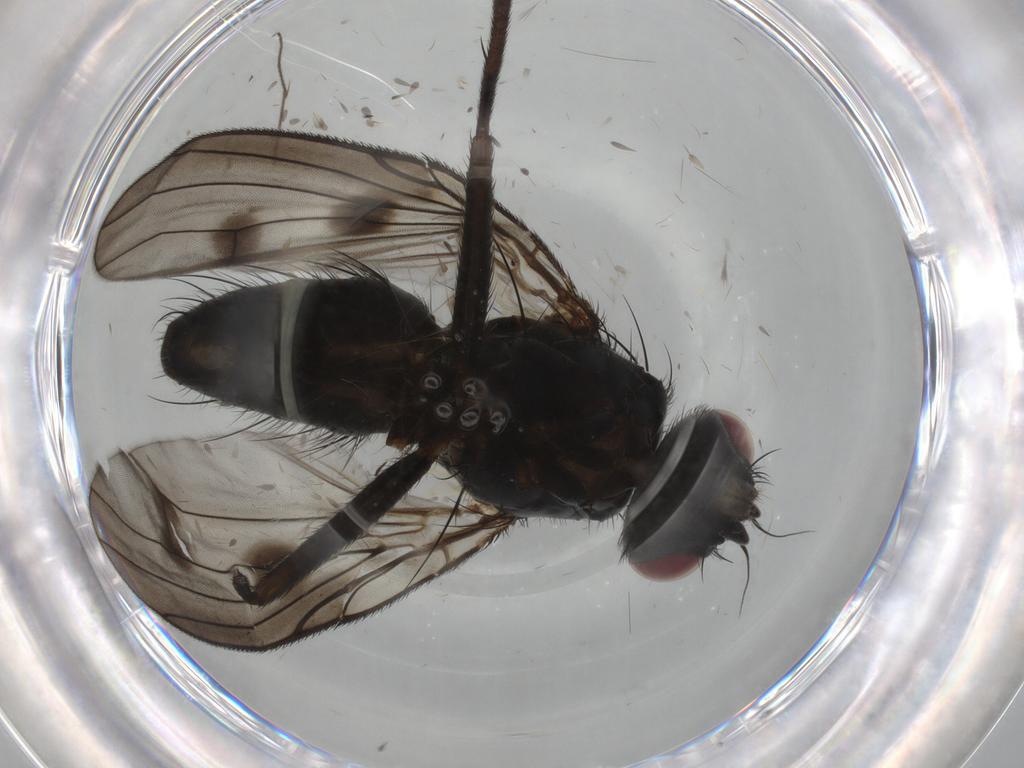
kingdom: Animalia
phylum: Arthropoda
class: Insecta
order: Diptera
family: Muscidae
